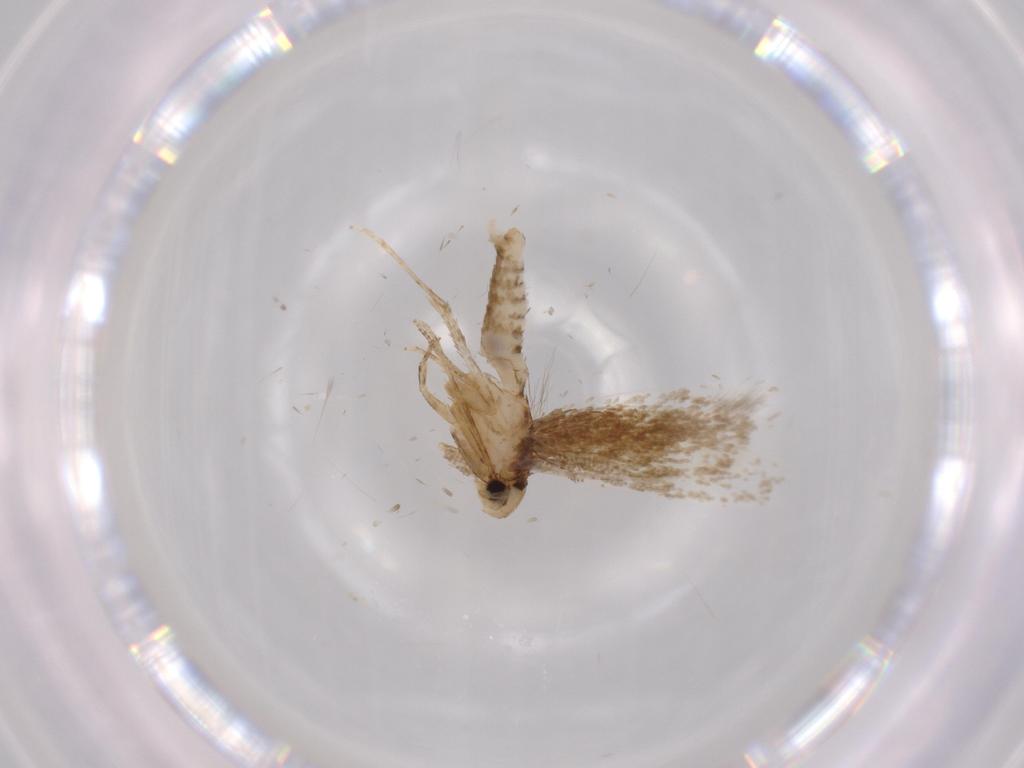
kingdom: Animalia
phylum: Arthropoda
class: Insecta
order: Lepidoptera
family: Tineidae
